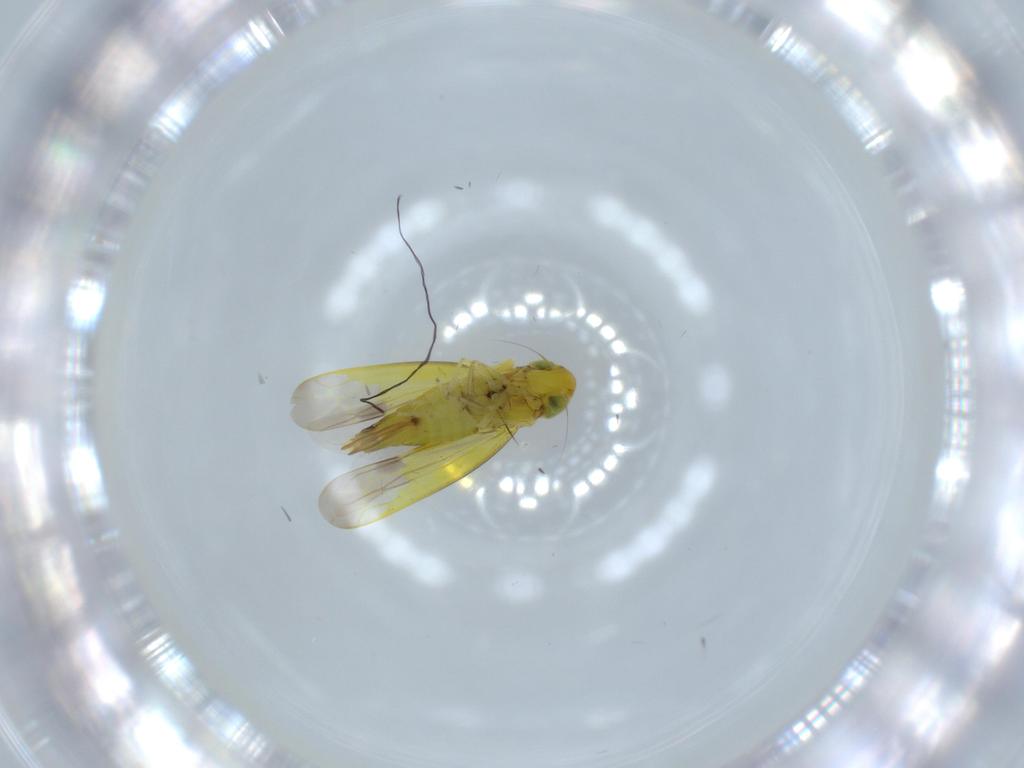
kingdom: Animalia
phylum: Arthropoda
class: Insecta
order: Hemiptera
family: Cicadellidae
